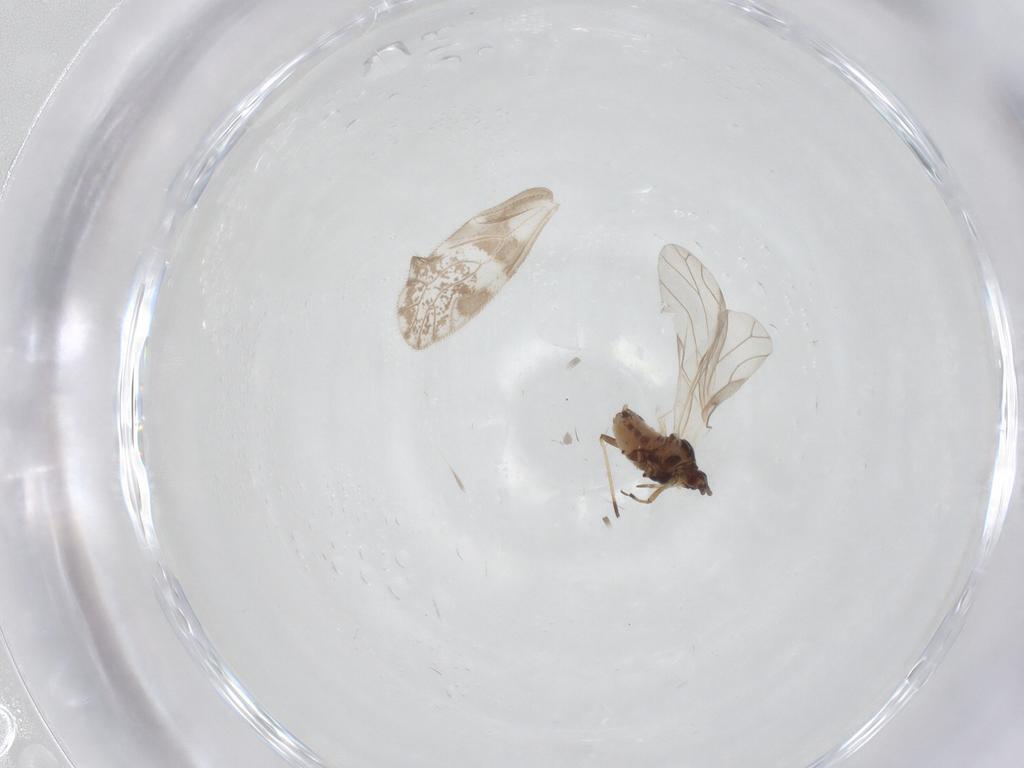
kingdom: Animalia
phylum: Arthropoda
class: Insecta
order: Hemiptera
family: Aphididae
